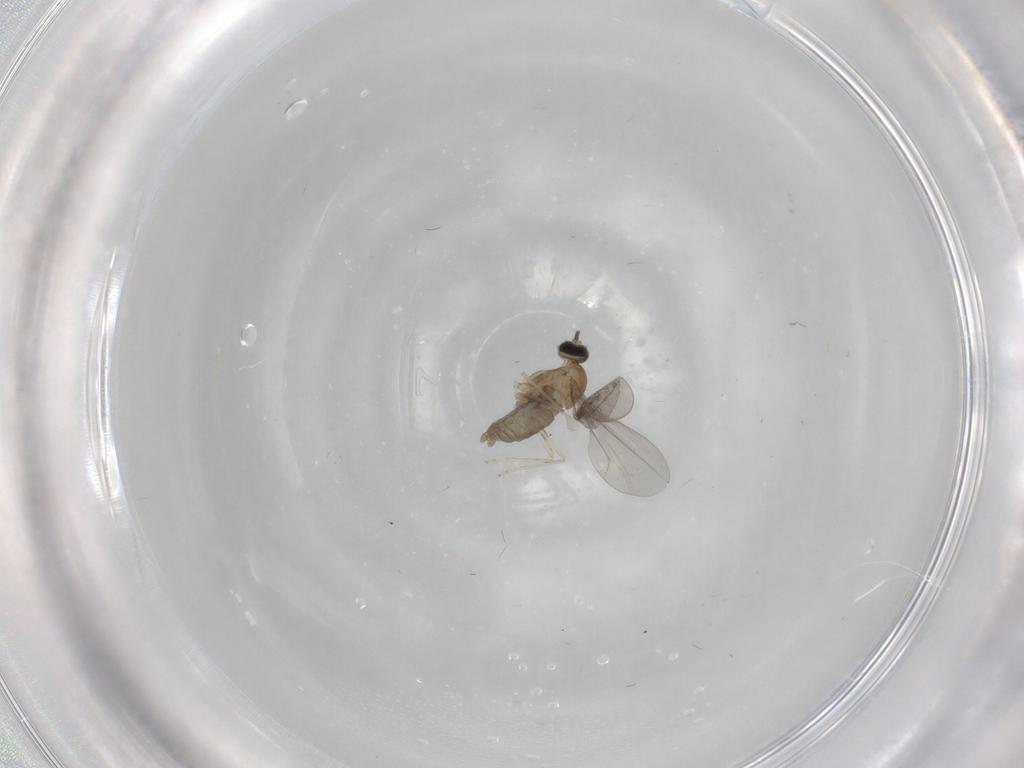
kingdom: Animalia
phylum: Arthropoda
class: Insecta
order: Diptera
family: Psychodidae
